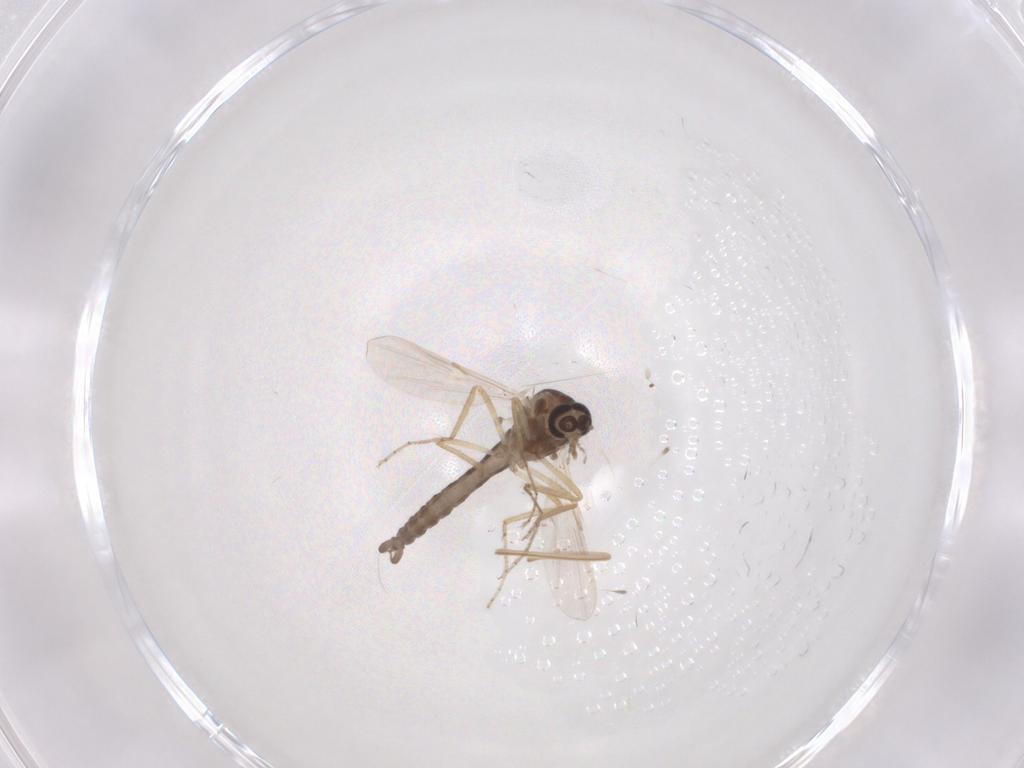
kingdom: Animalia
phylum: Arthropoda
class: Insecta
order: Diptera
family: Ceratopogonidae
